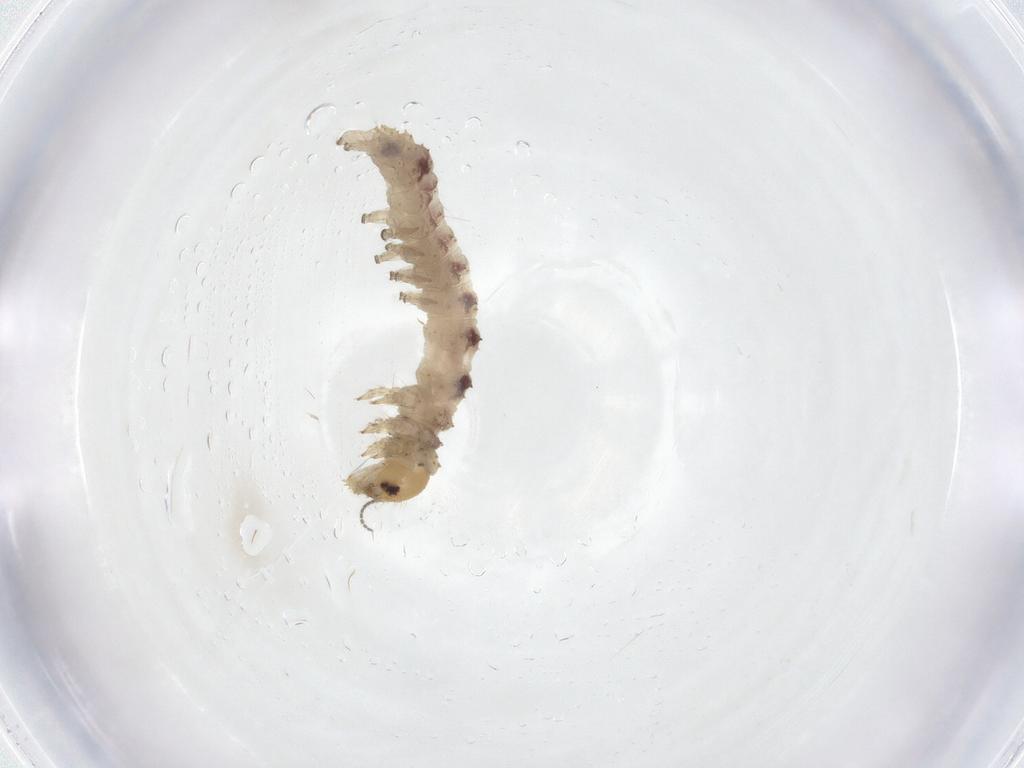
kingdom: Animalia
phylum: Arthropoda
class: Insecta
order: Lepidoptera
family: Erebidae
